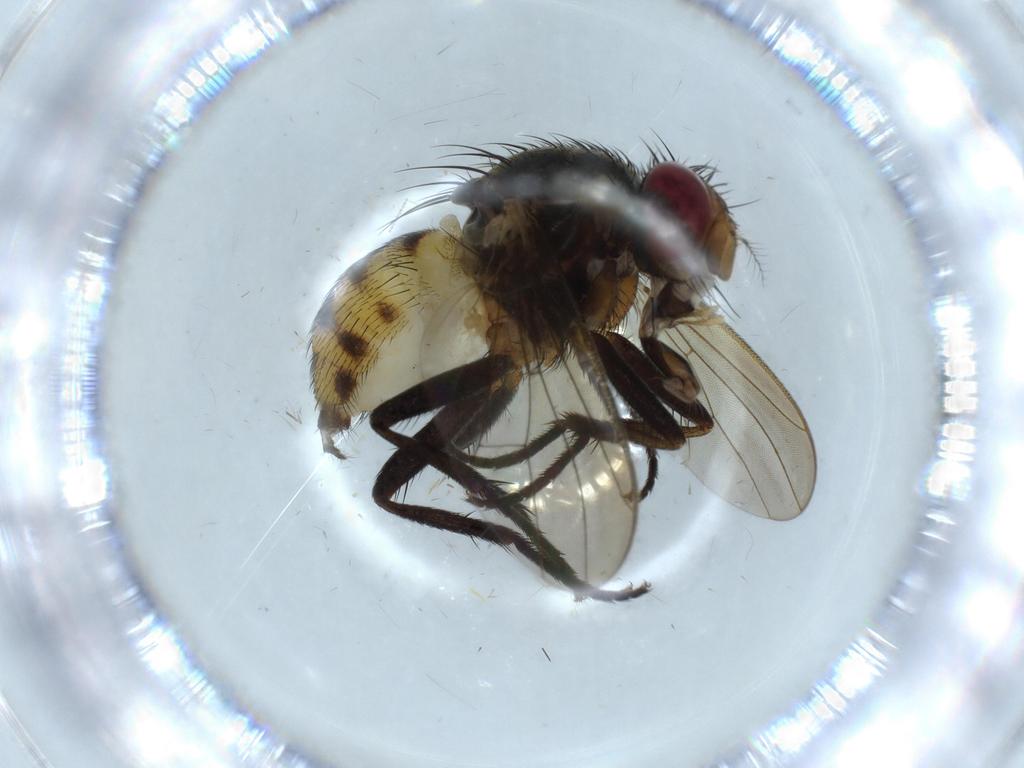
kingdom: Animalia
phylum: Arthropoda
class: Insecta
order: Diptera
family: Anthomyiidae
